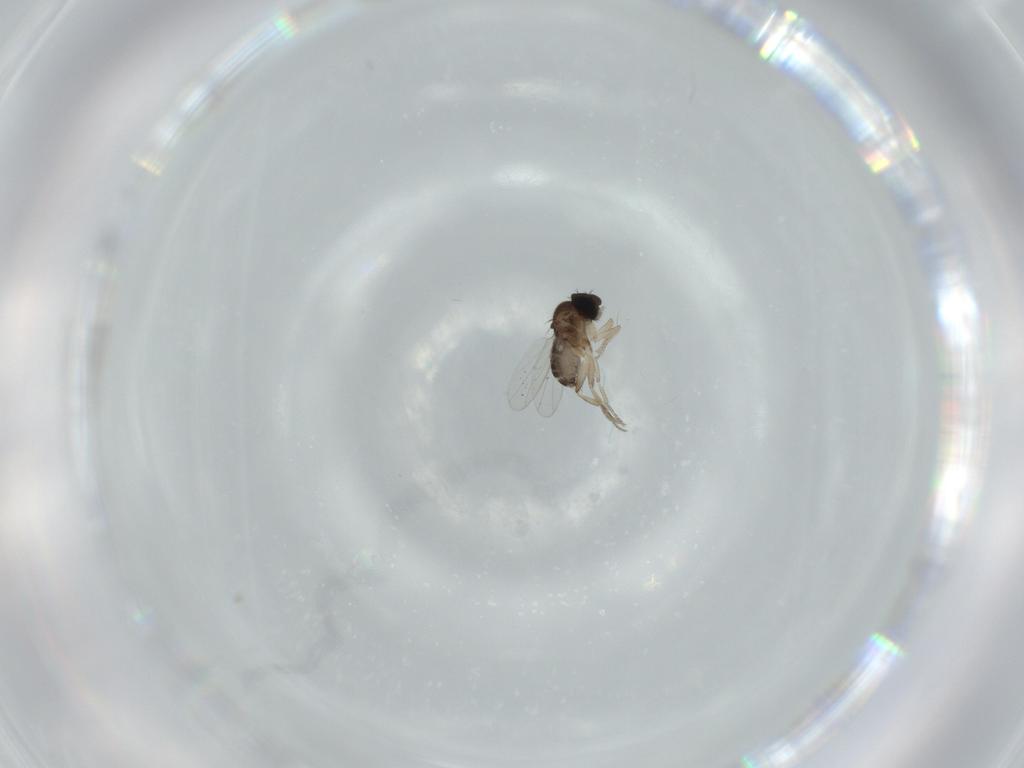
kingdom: Animalia
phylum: Arthropoda
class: Insecta
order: Diptera
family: Phoridae
